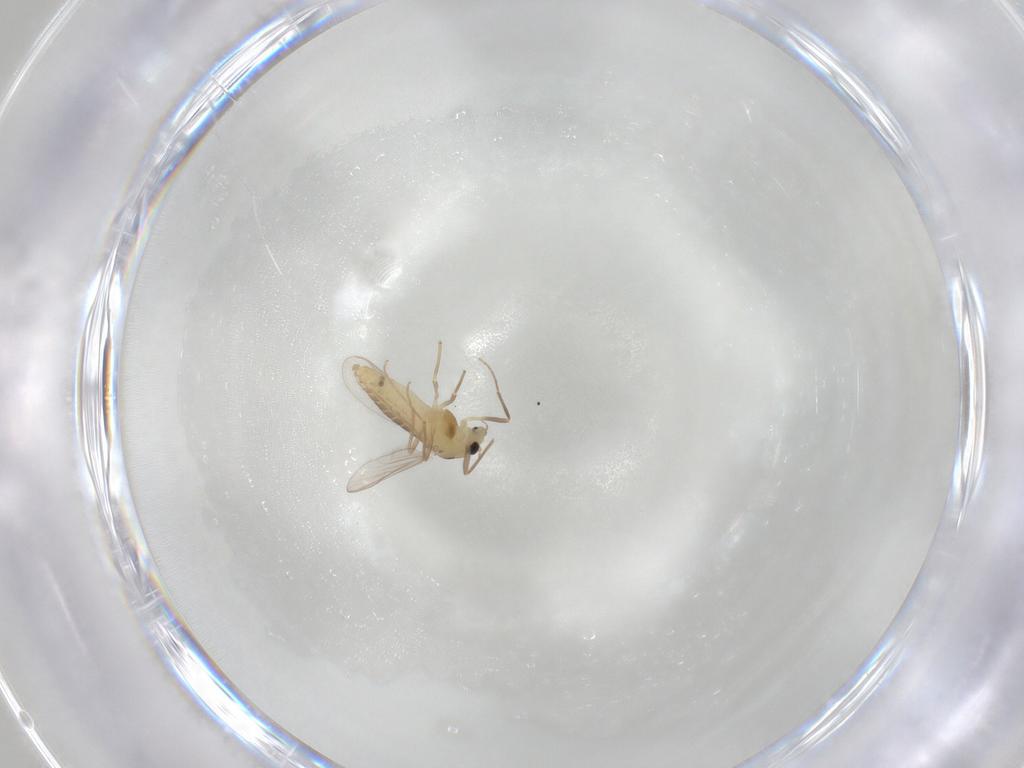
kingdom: Animalia
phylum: Arthropoda
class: Insecta
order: Diptera
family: Chironomidae
